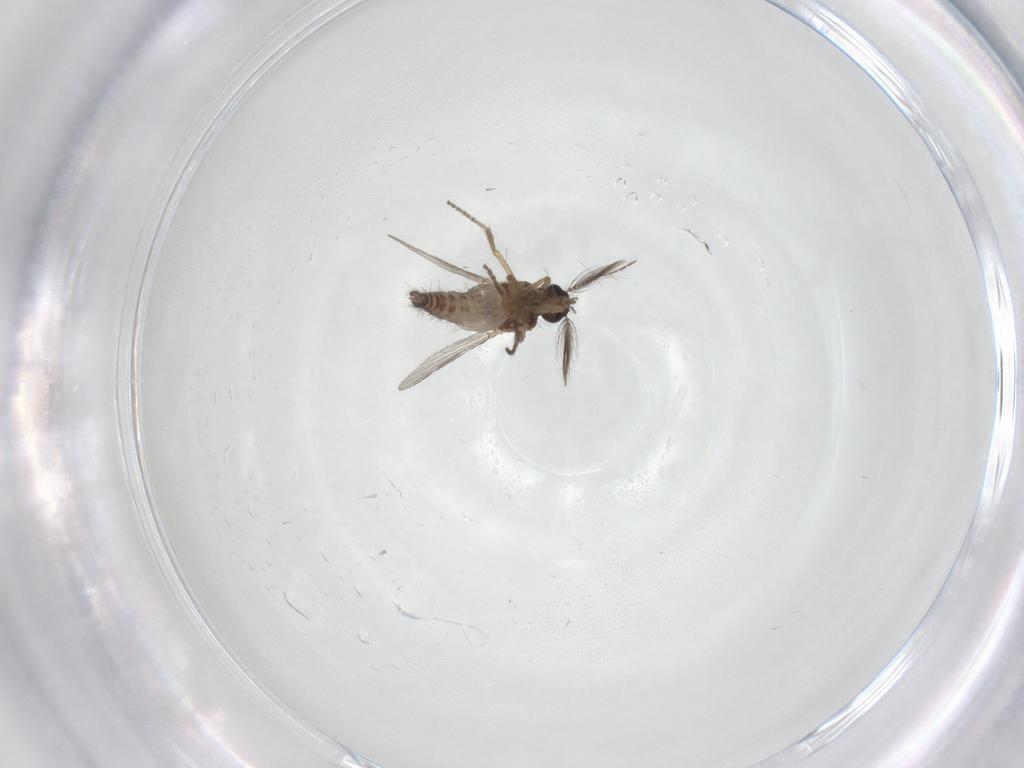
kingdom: Animalia
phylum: Arthropoda
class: Insecta
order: Diptera
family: Ceratopogonidae
